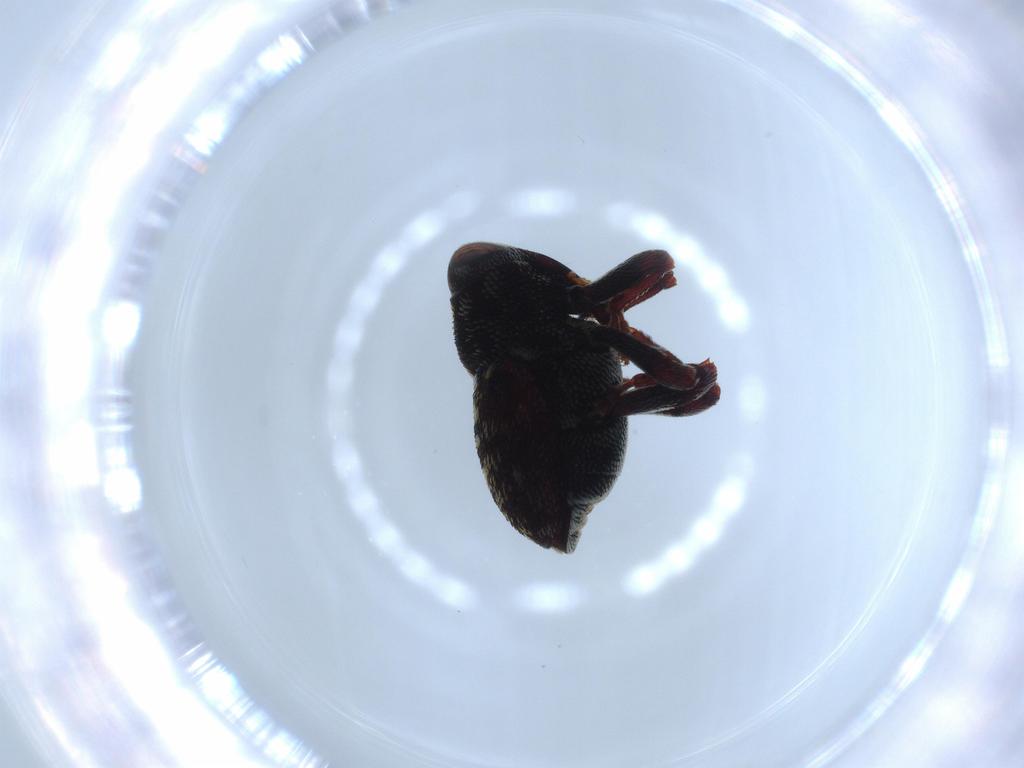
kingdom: Animalia
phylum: Arthropoda
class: Insecta
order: Coleoptera
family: Curculionidae
